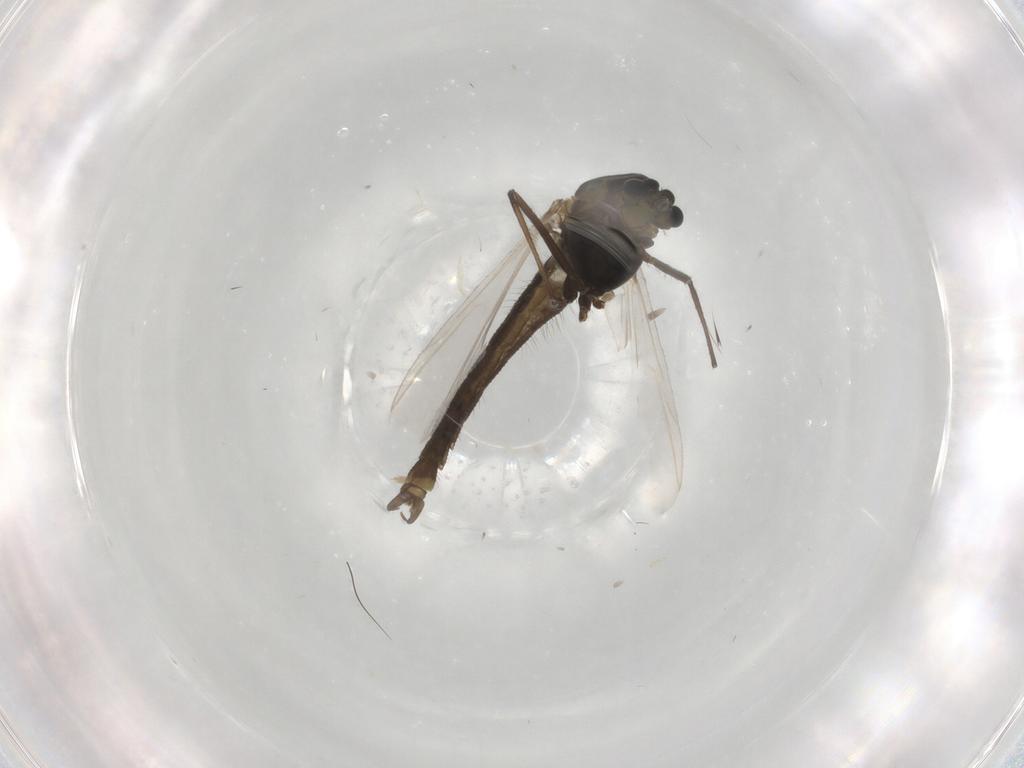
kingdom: Animalia
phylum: Arthropoda
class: Insecta
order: Diptera
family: Chironomidae
